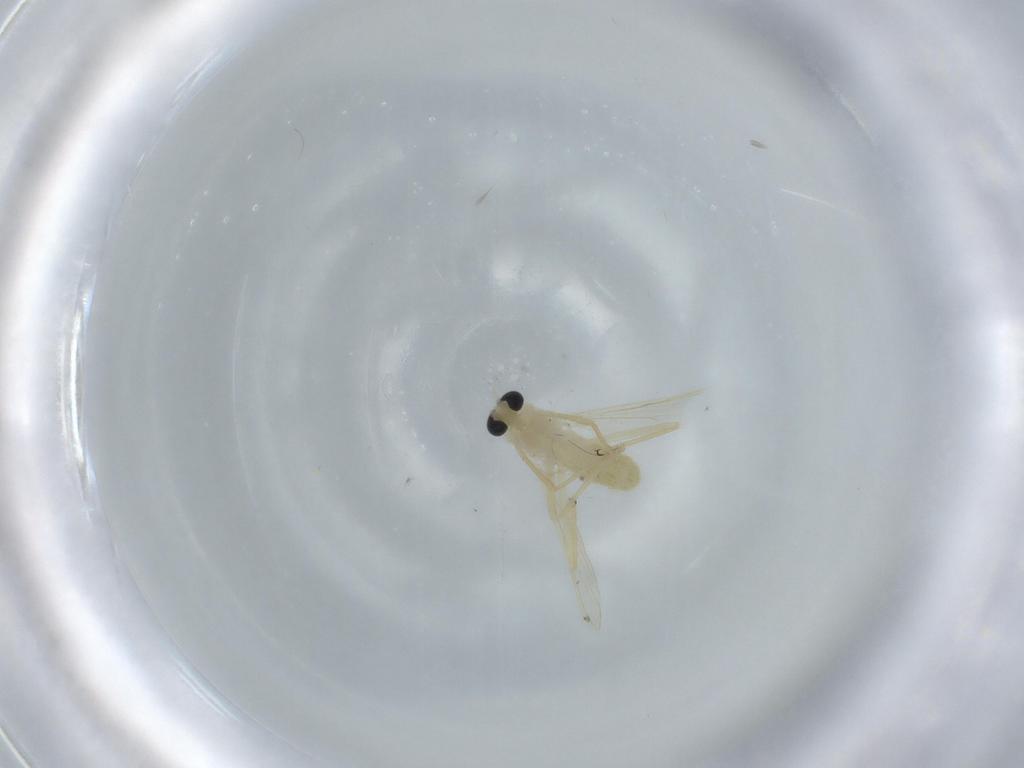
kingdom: Animalia
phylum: Arthropoda
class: Insecta
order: Diptera
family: Chironomidae
